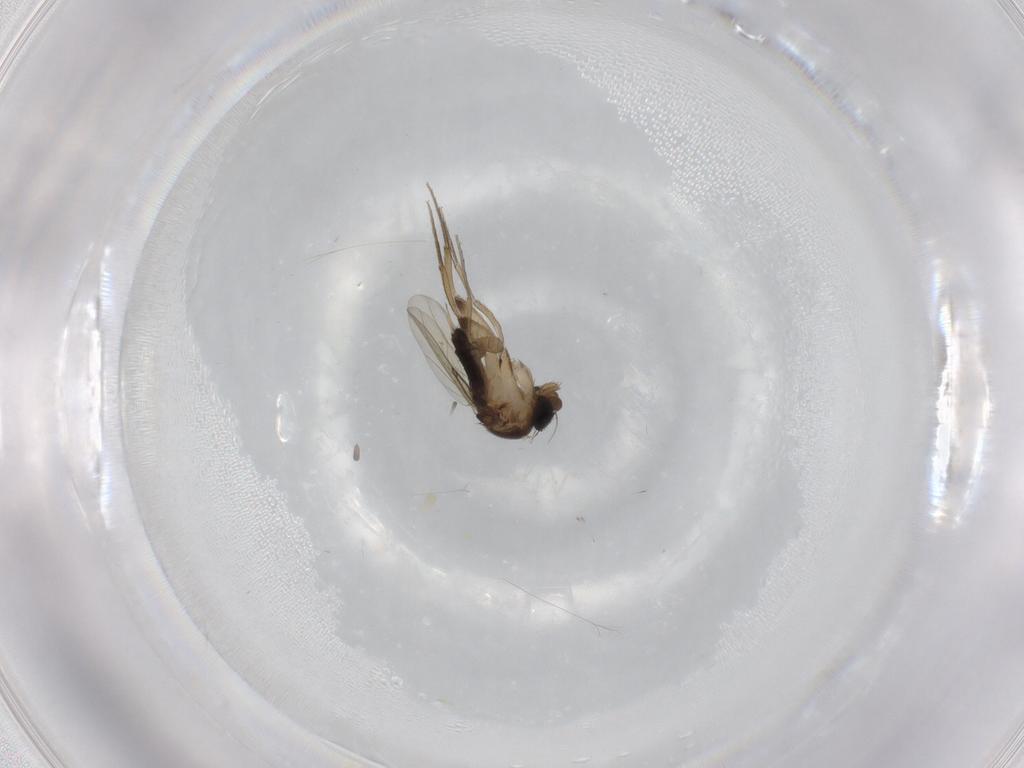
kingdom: Animalia
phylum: Arthropoda
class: Insecta
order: Diptera
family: Phoridae
